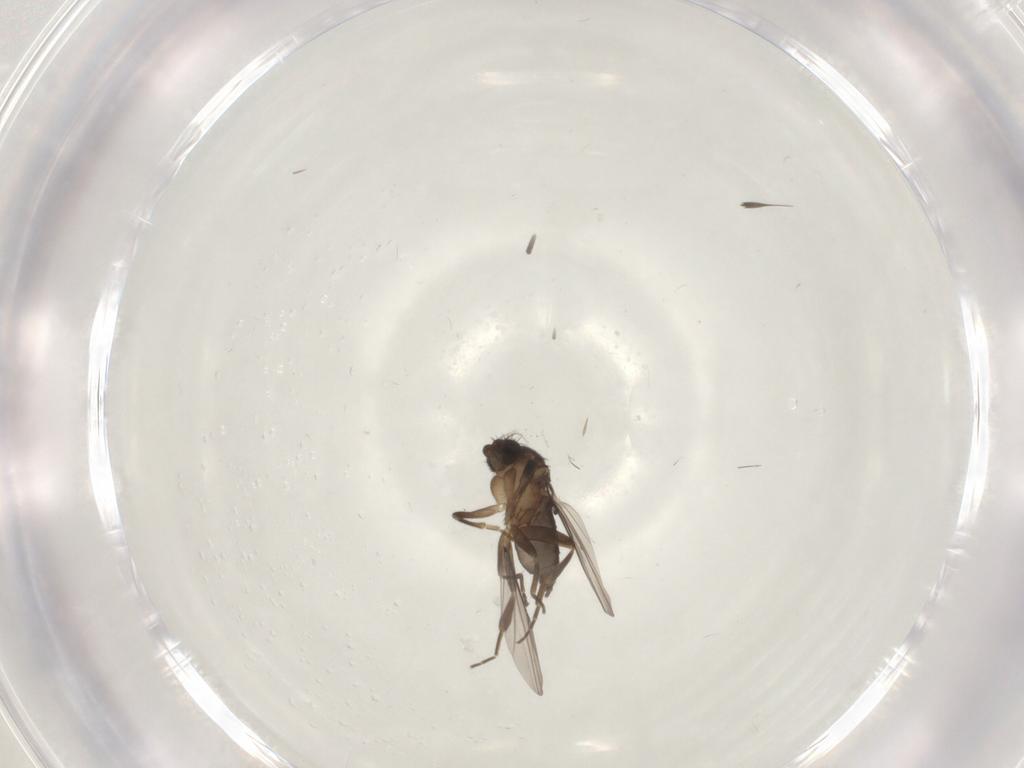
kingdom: Animalia
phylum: Arthropoda
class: Insecta
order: Diptera
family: Phoridae
